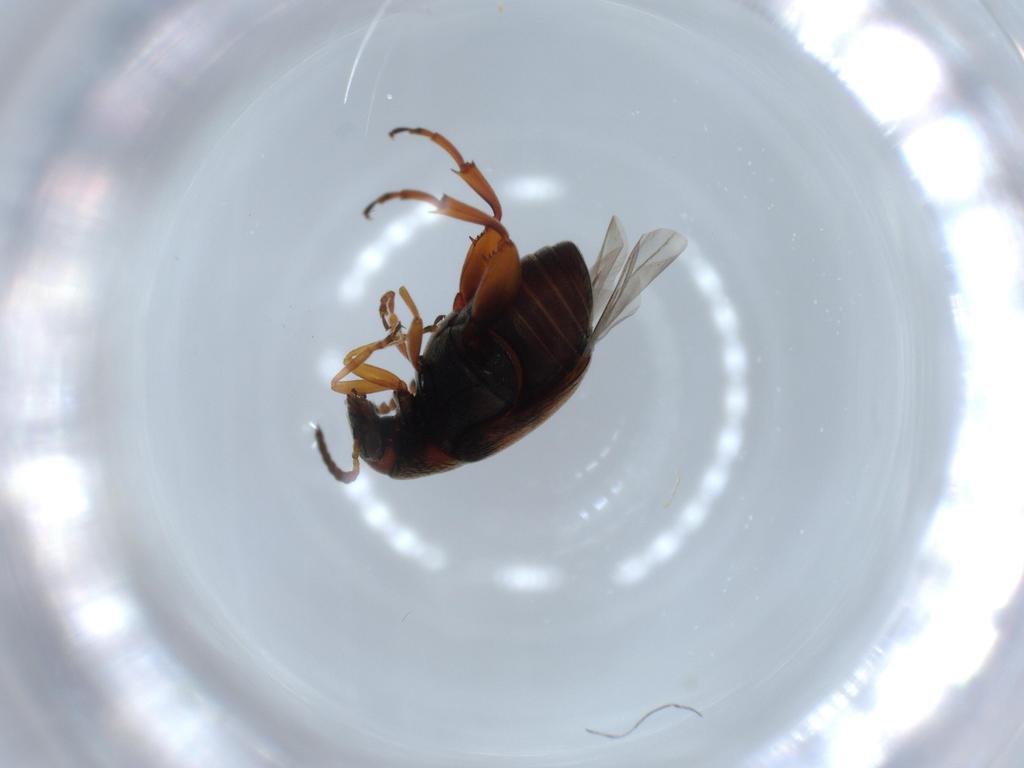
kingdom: Animalia
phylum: Arthropoda
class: Insecta
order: Coleoptera
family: Chrysomelidae
